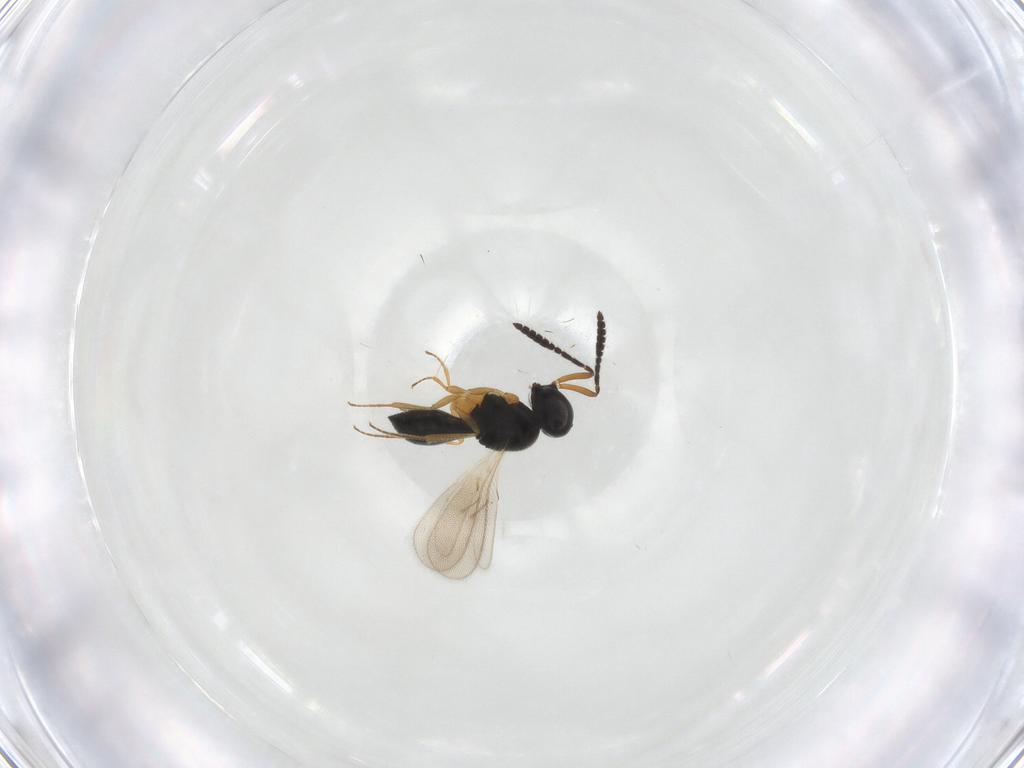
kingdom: Animalia
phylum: Arthropoda
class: Insecta
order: Hymenoptera
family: Scelionidae
